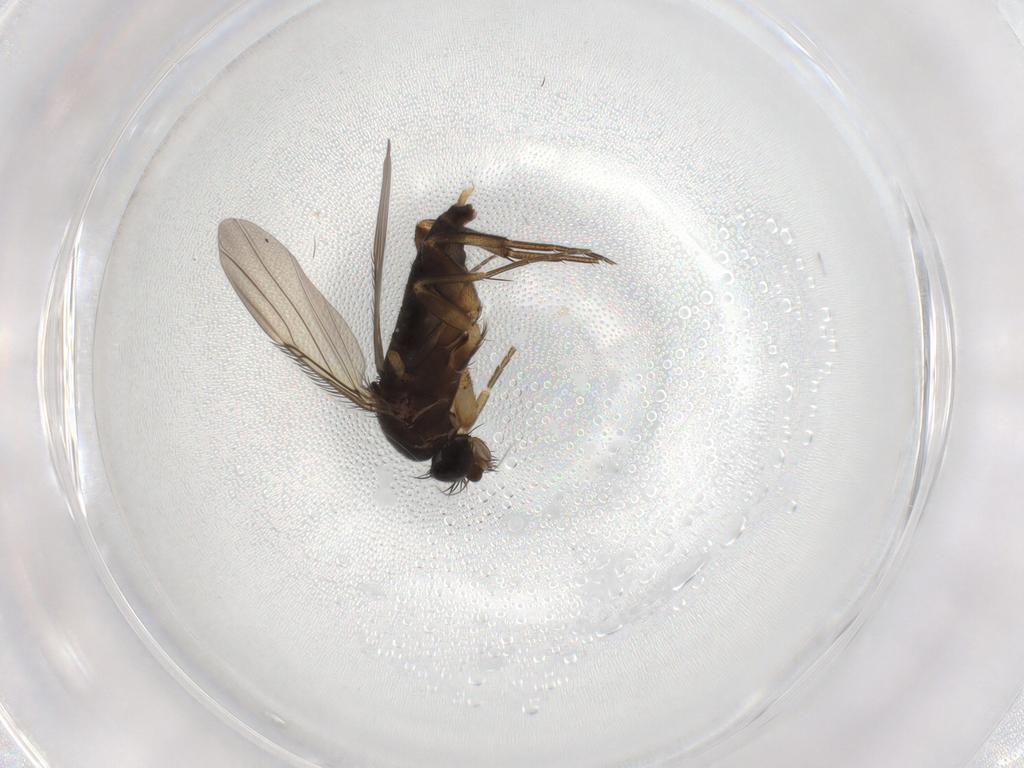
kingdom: Animalia
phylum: Arthropoda
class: Insecta
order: Diptera
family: Phoridae
